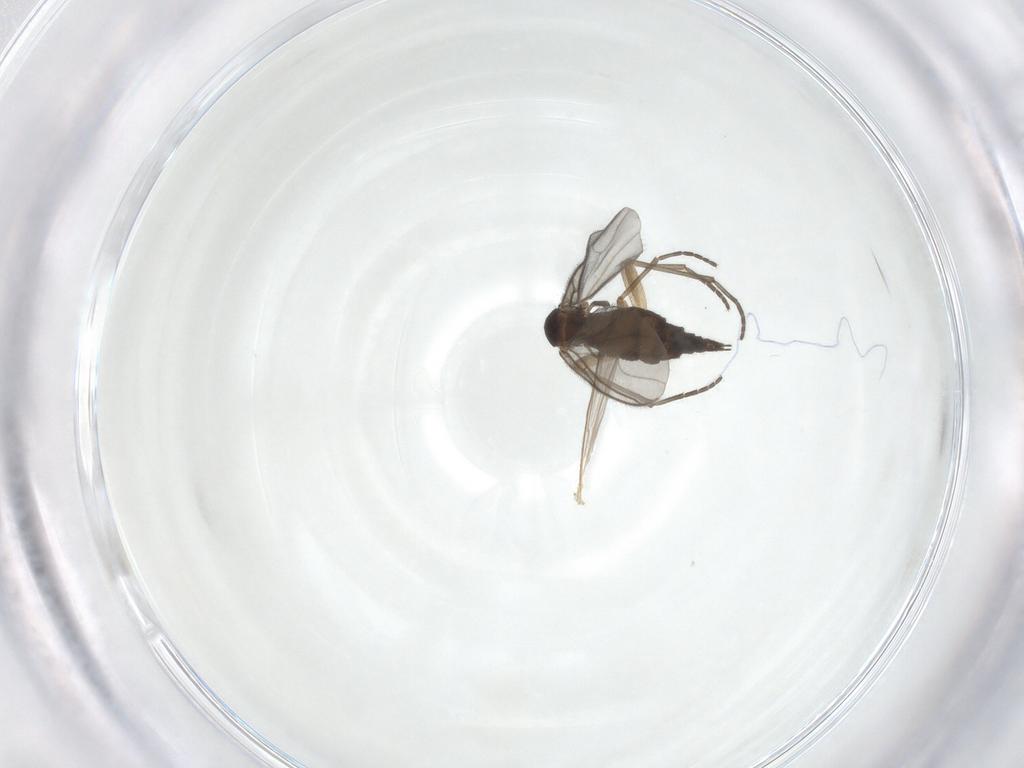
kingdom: Animalia
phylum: Arthropoda
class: Insecta
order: Diptera
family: Sciaridae
